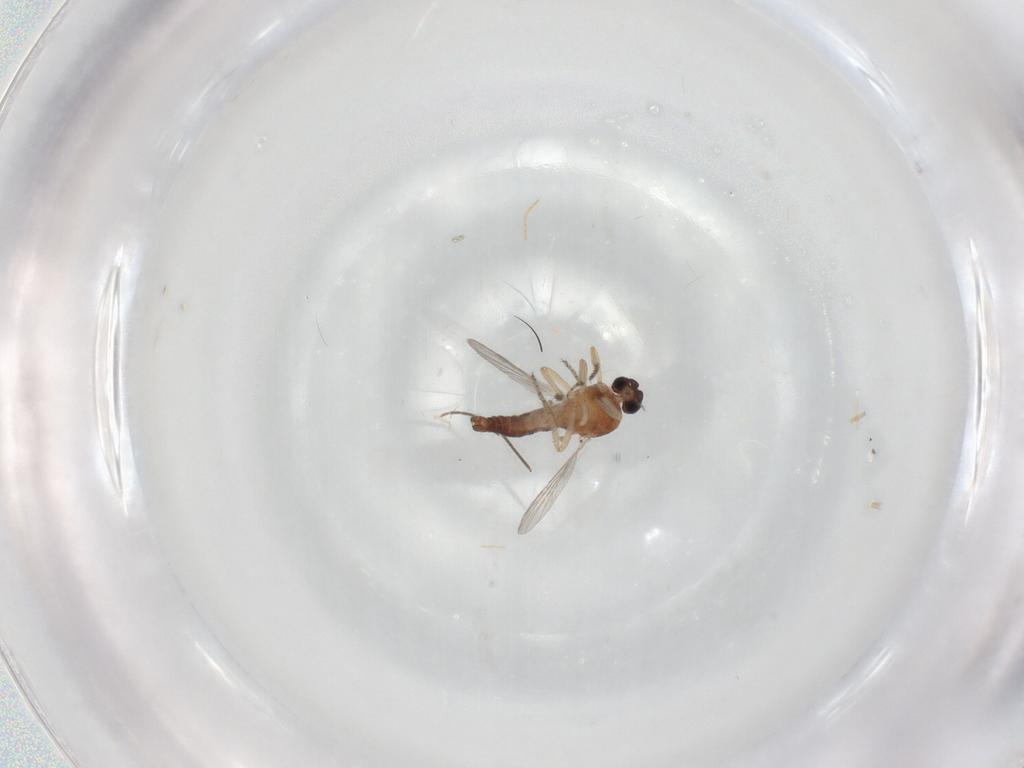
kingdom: Animalia
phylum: Arthropoda
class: Insecta
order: Diptera
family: Ceratopogonidae
